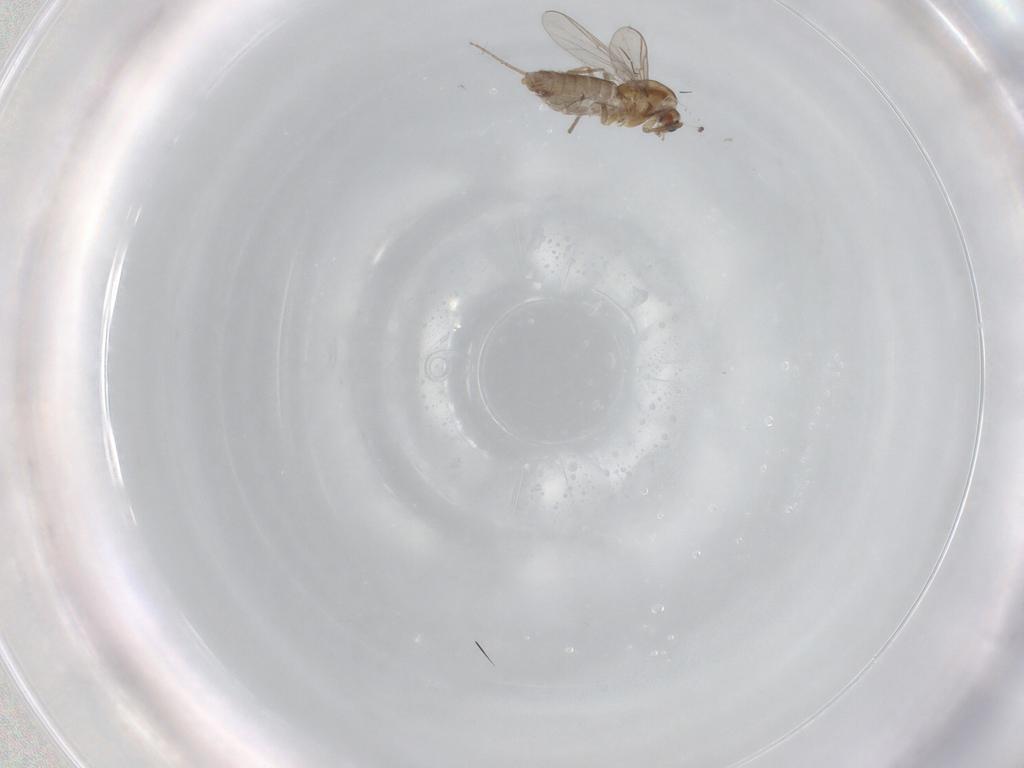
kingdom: Animalia
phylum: Arthropoda
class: Insecta
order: Diptera
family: Chironomidae
